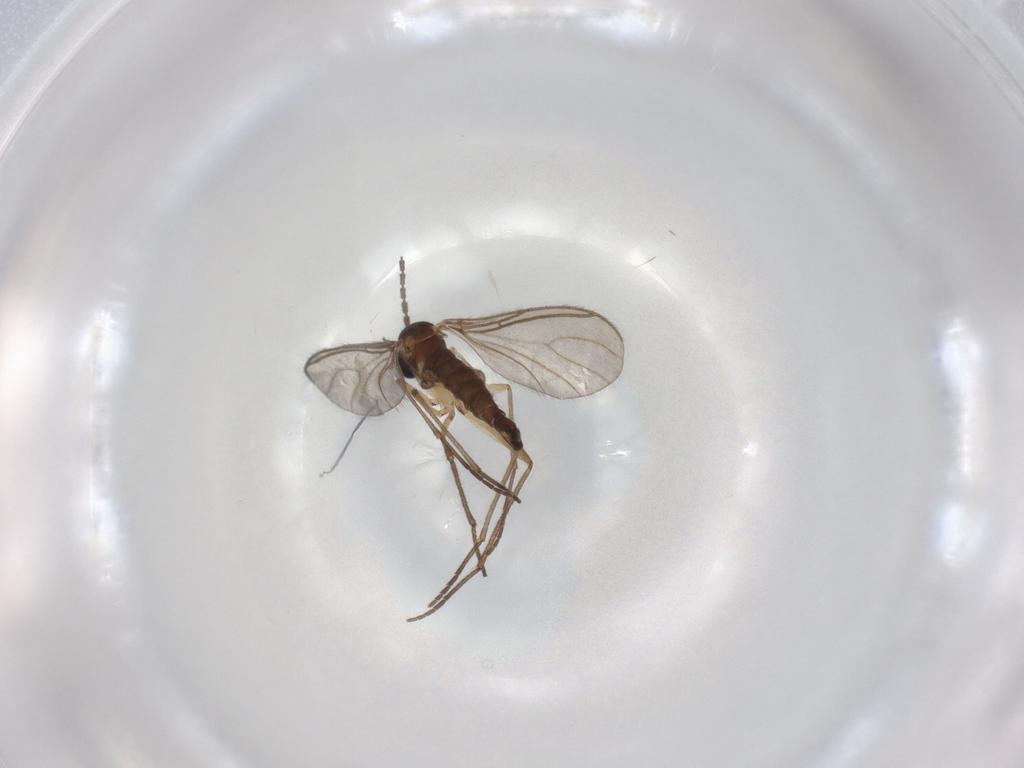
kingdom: Animalia
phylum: Arthropoda
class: Insecta
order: Diptera
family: Sciaridae
